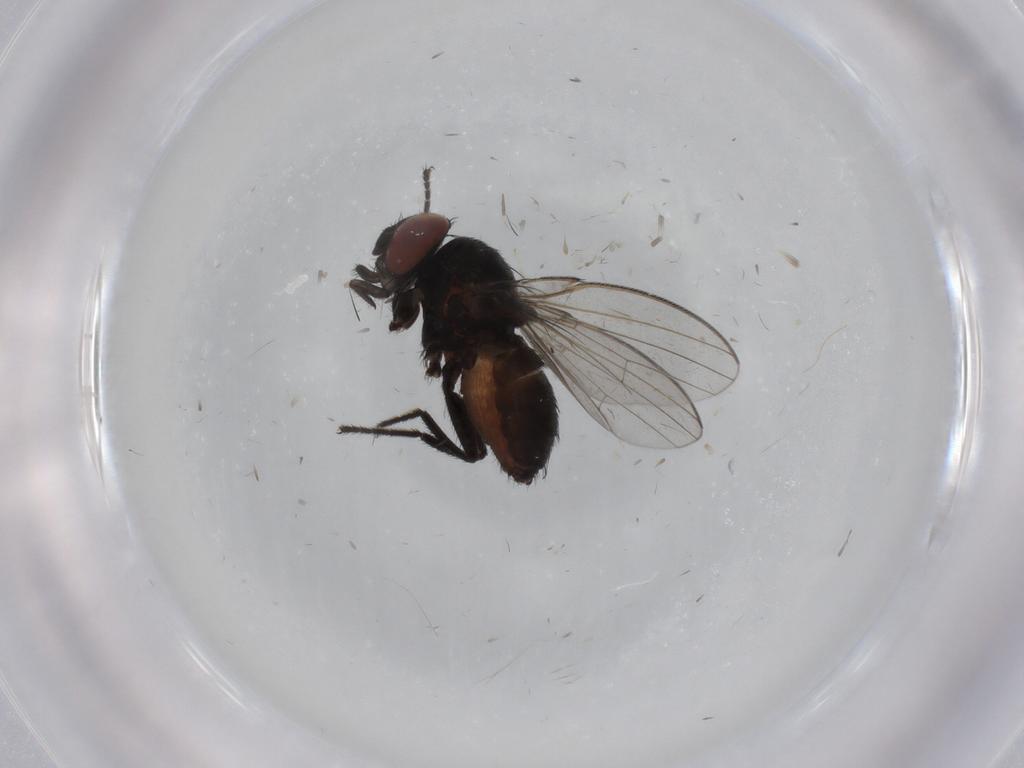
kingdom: Animalia
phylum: Arthropoda
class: Insecta
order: Diptera
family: Milichiidae
